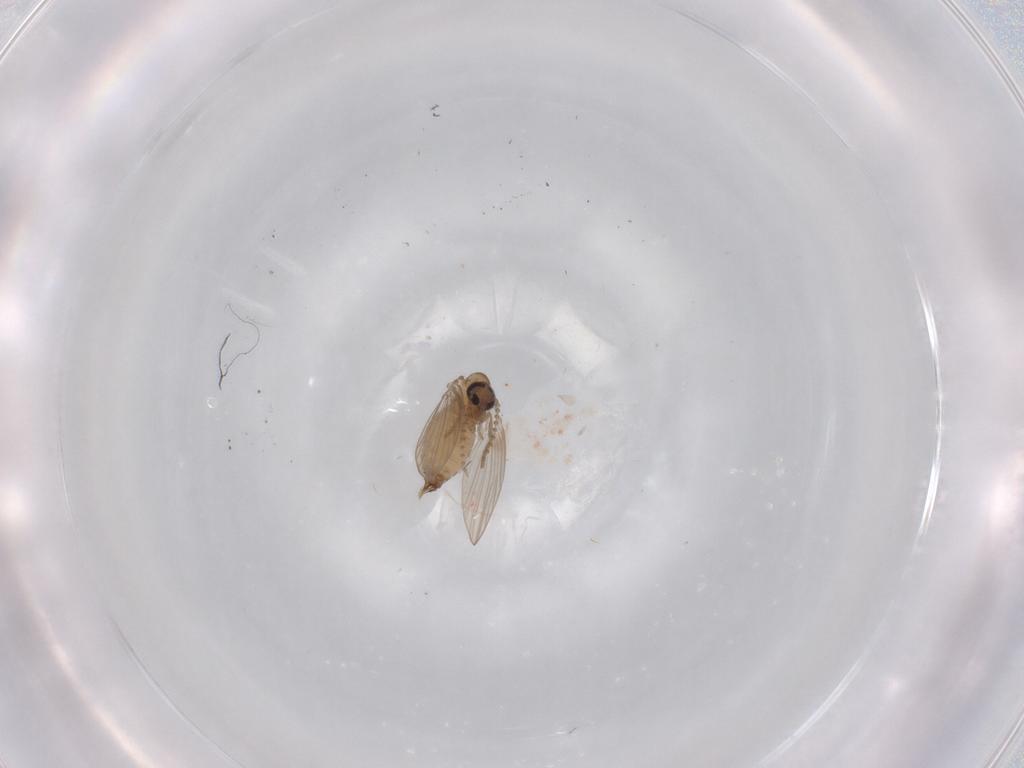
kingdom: Animalia
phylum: Arthropoda
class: Insecta
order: Diptera
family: Psychodidae
